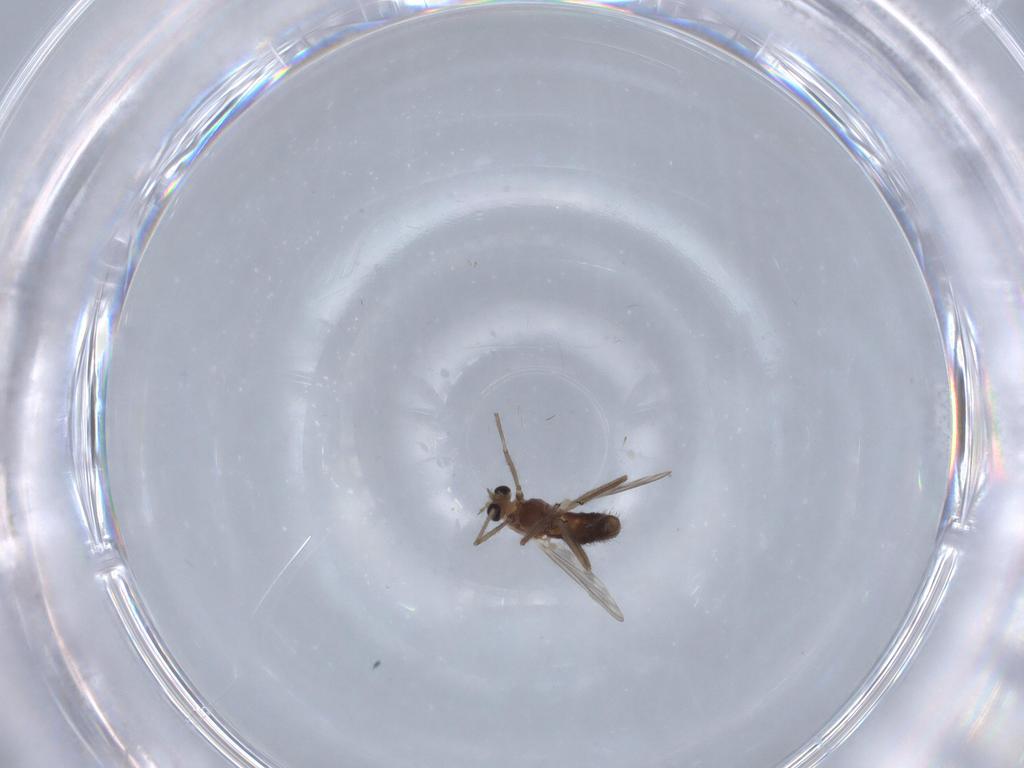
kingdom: Animalia
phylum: Arthropoda
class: Insecta
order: Diptera
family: Chironomidae
